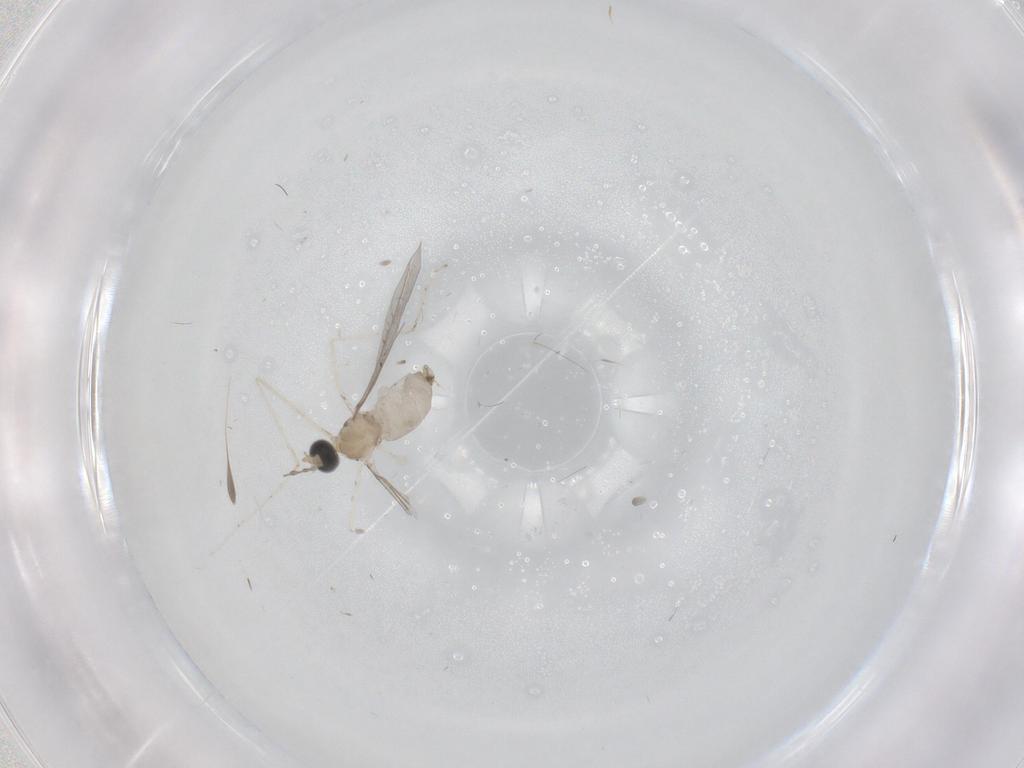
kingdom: Animalia
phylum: Arthropoda
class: Insecta
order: Diptera
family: Cecidomyiidae
